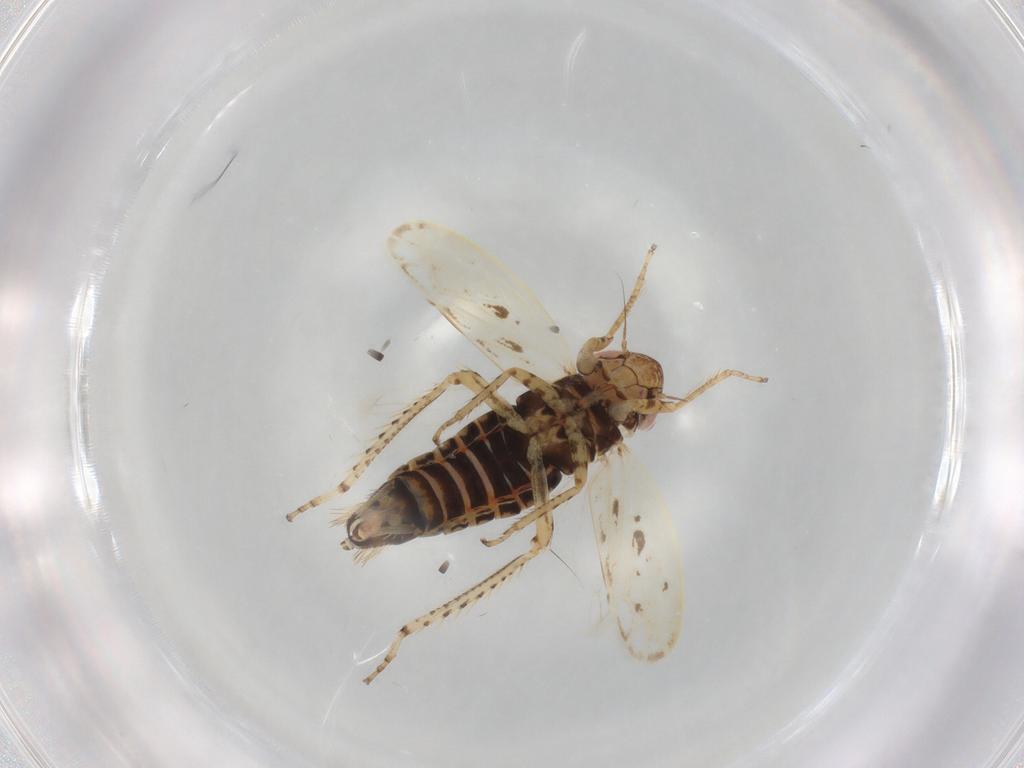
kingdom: Animalia
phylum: Arthropoda
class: Insecta
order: Hemiptera
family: Cicadellidae
